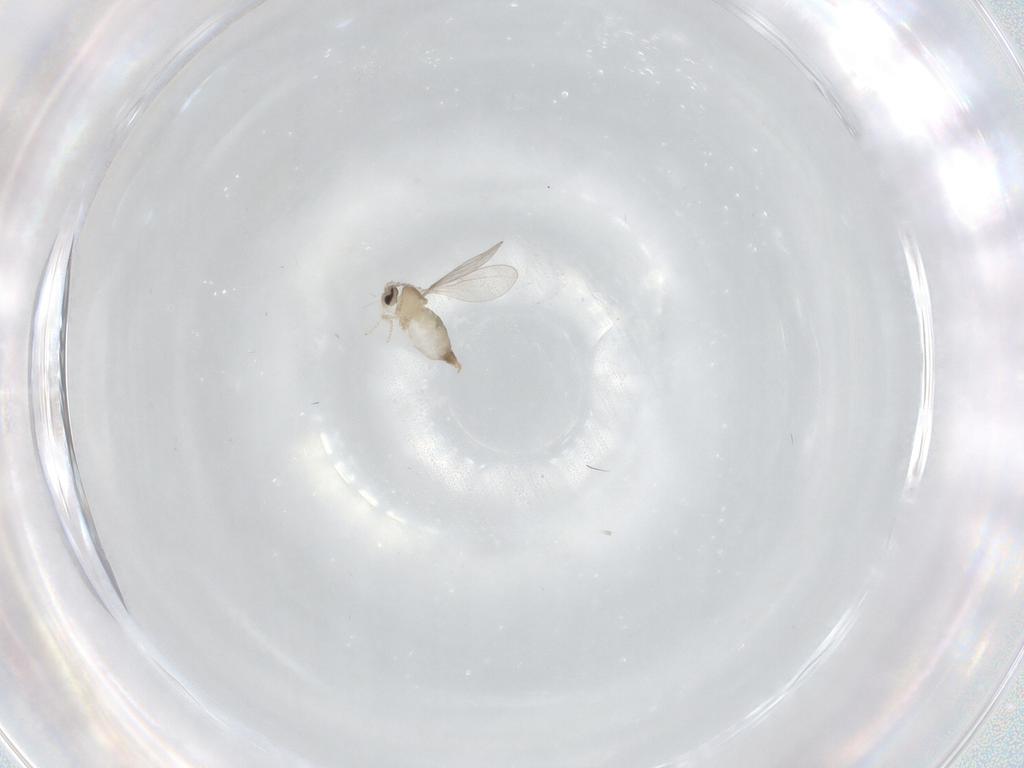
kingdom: Animalia
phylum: Arthropoda
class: Insecta
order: Diptera
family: Cecidomyiidae
